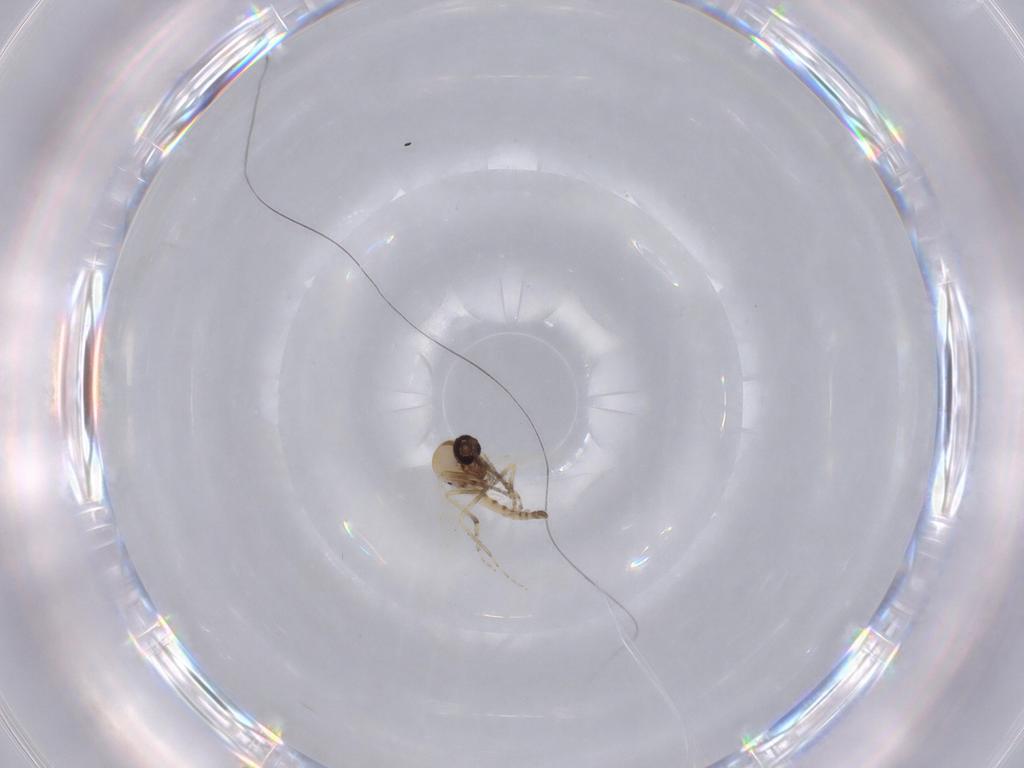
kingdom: Animalia
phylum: Arthropoda
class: Insecta
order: Diptera
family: Ceratopogonidae
